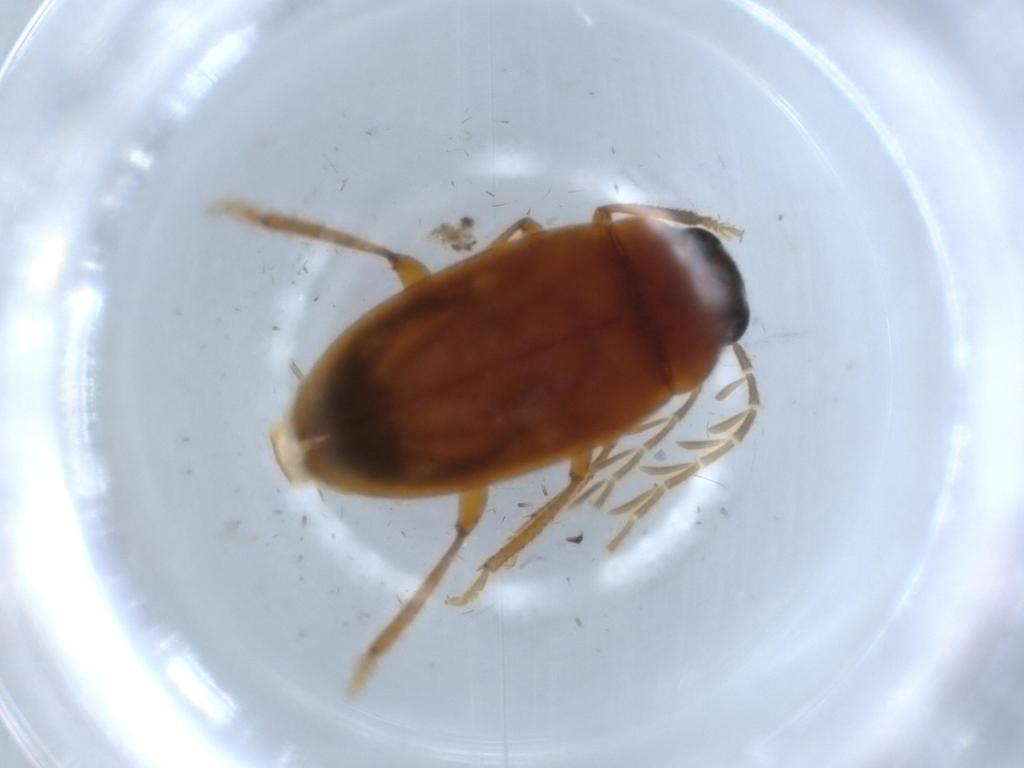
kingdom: Animalia
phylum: Arthropoda
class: Insecta
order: Coleoptera
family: Ptilodactylidae
